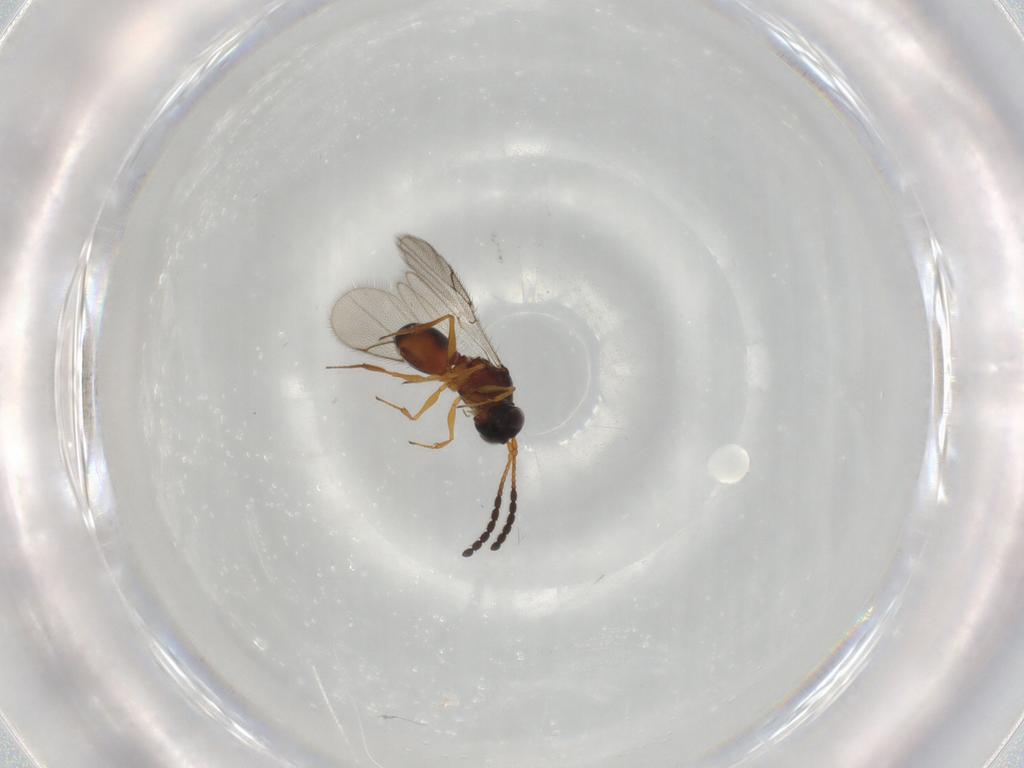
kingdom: Animalia
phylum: Arthropoda
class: Insecta
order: Hymenoptera
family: Figitidae
